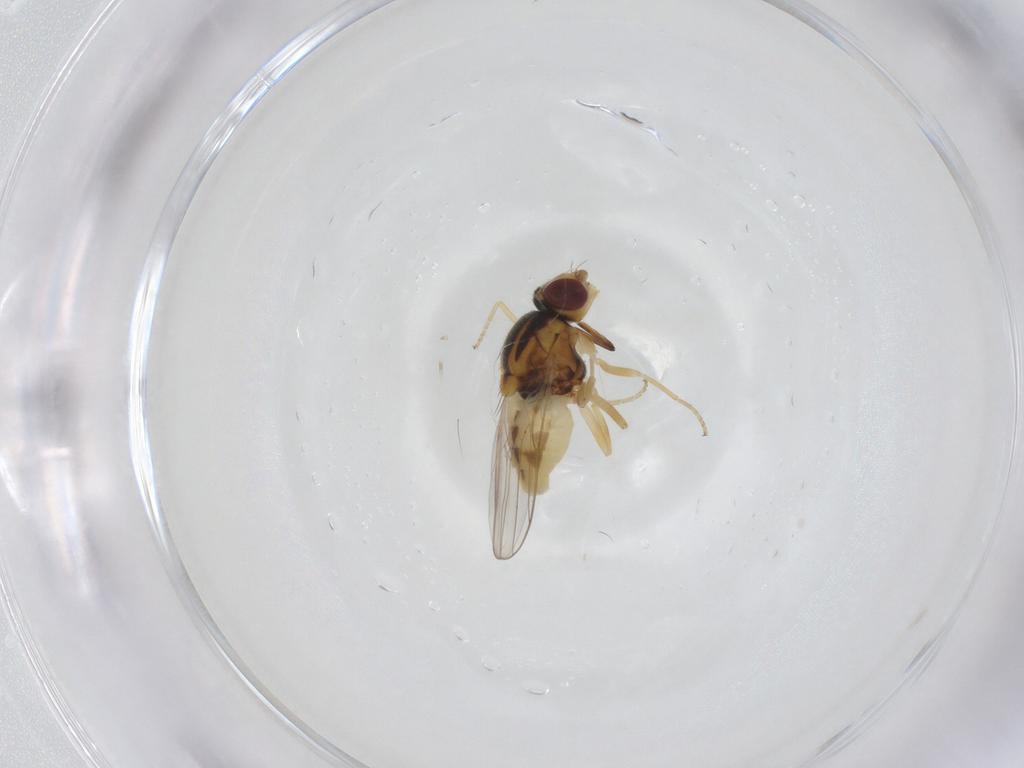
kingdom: Animalia
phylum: Arthropoda
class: Insecta
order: Diptera
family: Chloropidae
